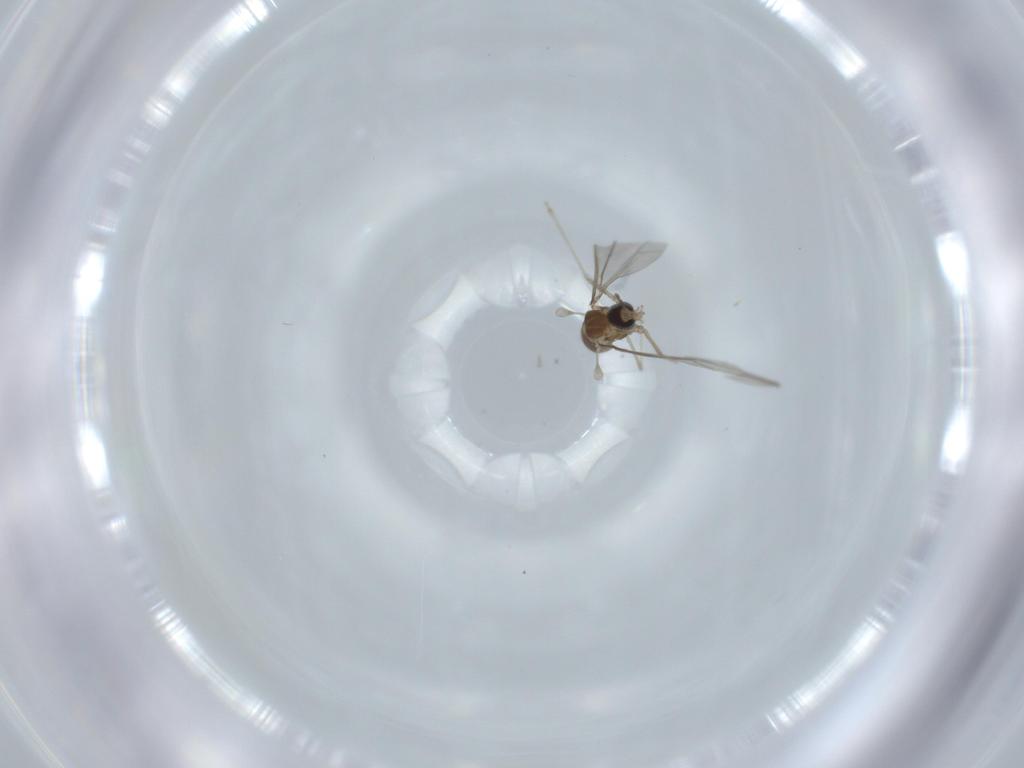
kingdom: Animalia
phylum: Arthropoda
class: Insecta
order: Diptera
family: Cecidomyiidae
